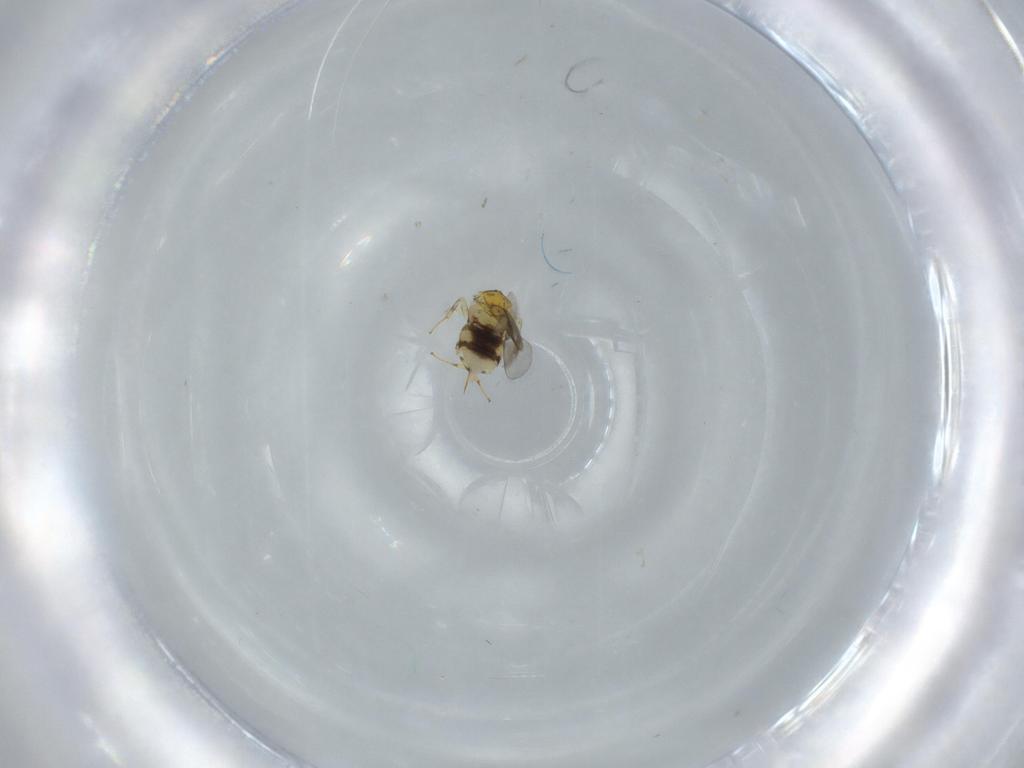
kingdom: Animalia
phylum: Arthropoda
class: Insecta
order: Diptera
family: Ceratopogonidae
